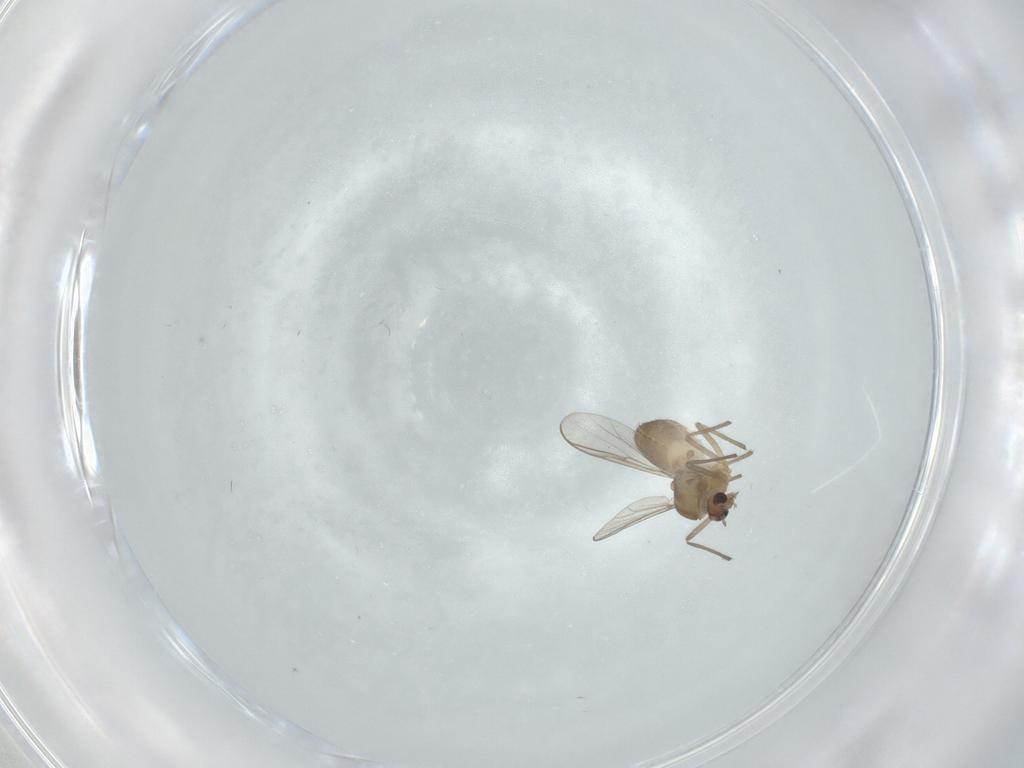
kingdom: Animalia
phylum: Arthropoda
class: Insecta
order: Diptera
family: Chironomidae
